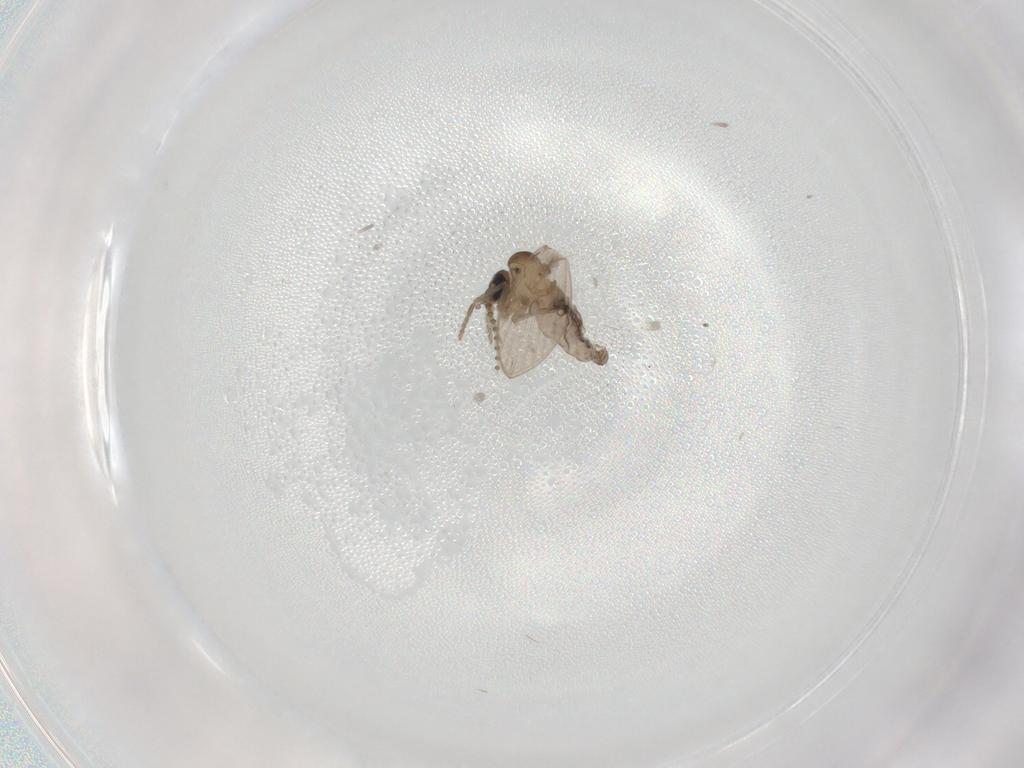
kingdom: Animalia
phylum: Arthropoda
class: Insecta
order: Diptera
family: Psychodidae
